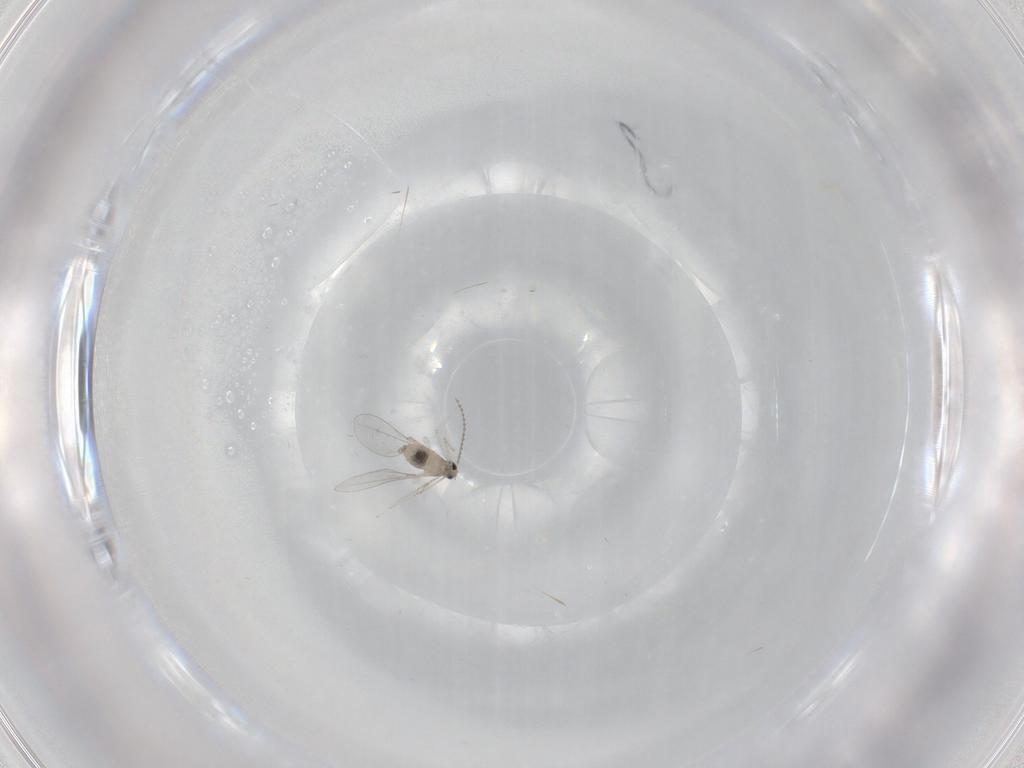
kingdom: Animalia
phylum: Arthropoda
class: Insecta
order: Diptera
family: Cecidomyiidae
